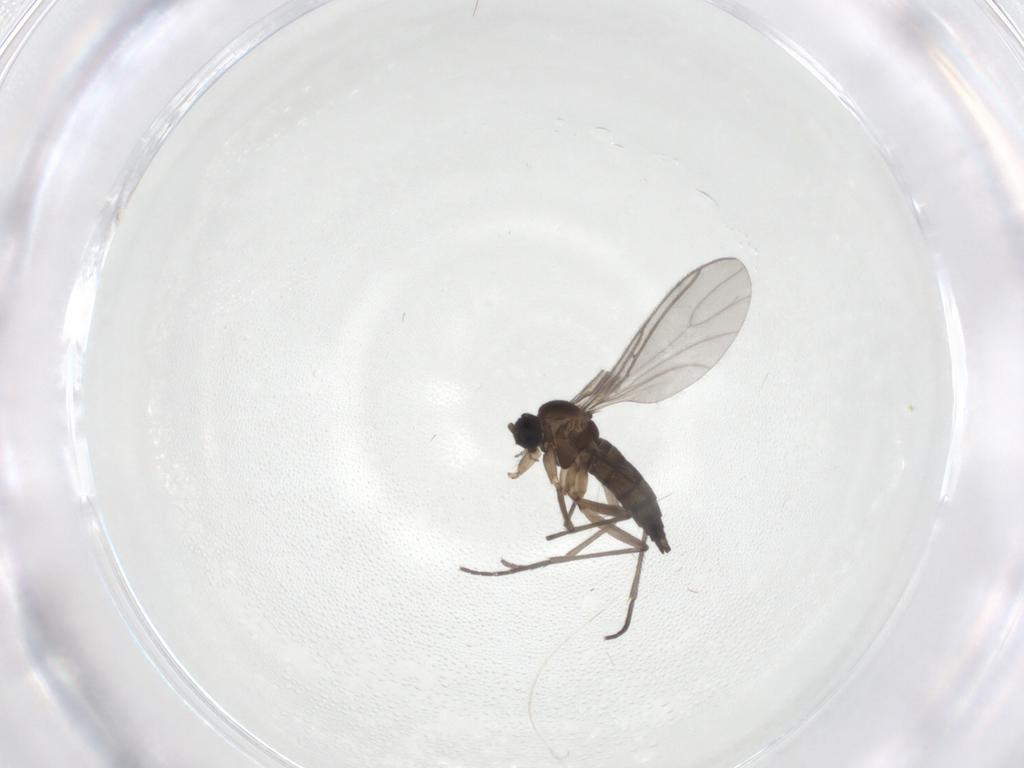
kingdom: Animalia
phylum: Arthropoda
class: Insecta
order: Diptera
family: Sciaridae
